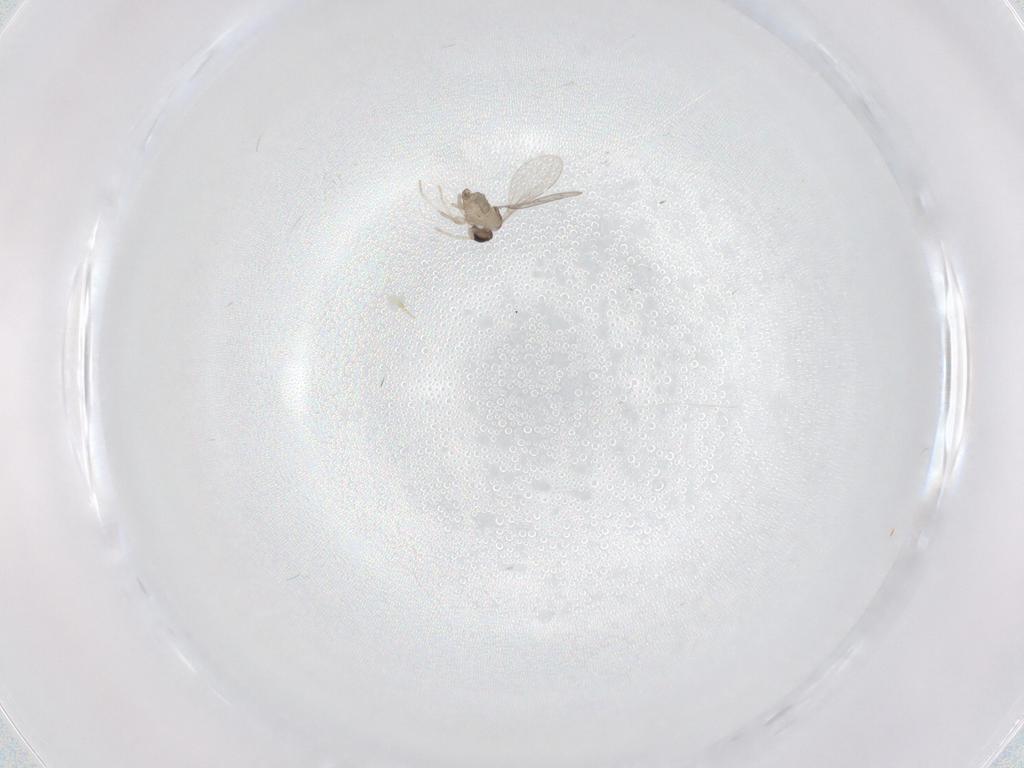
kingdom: Animalia
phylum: Arthropoda
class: Insecta
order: Diptera
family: Cecidomyiidae
